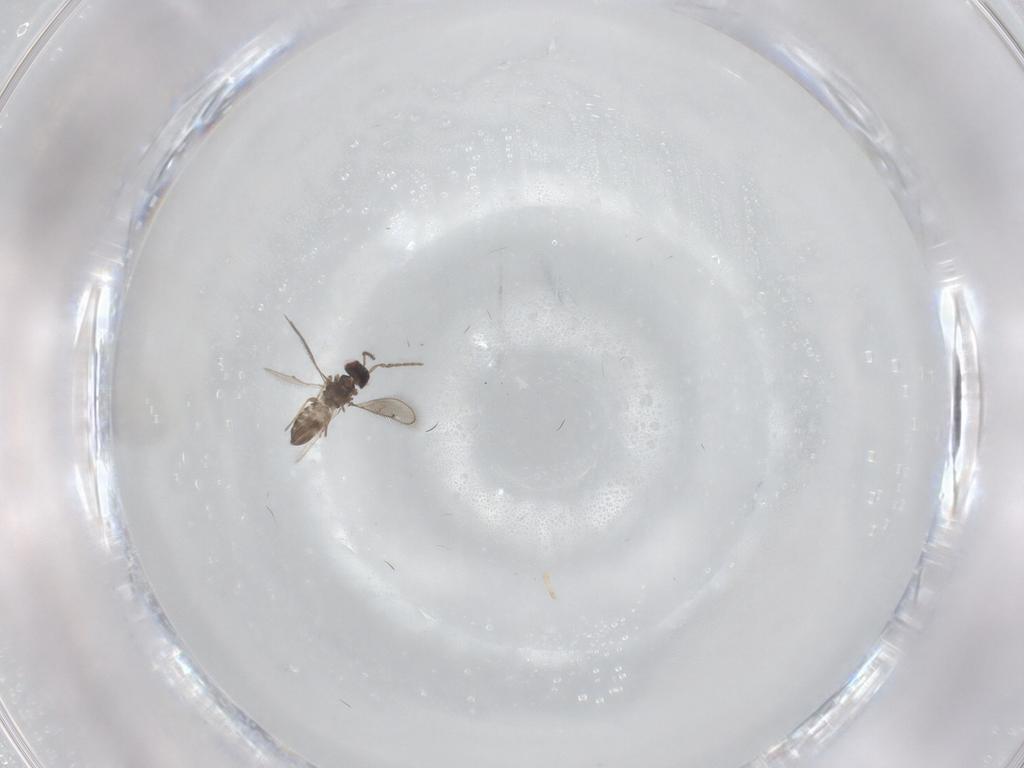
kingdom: Animalia
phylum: Arthropoda
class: Insecta
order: Hymenoptera
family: Eulophidae
